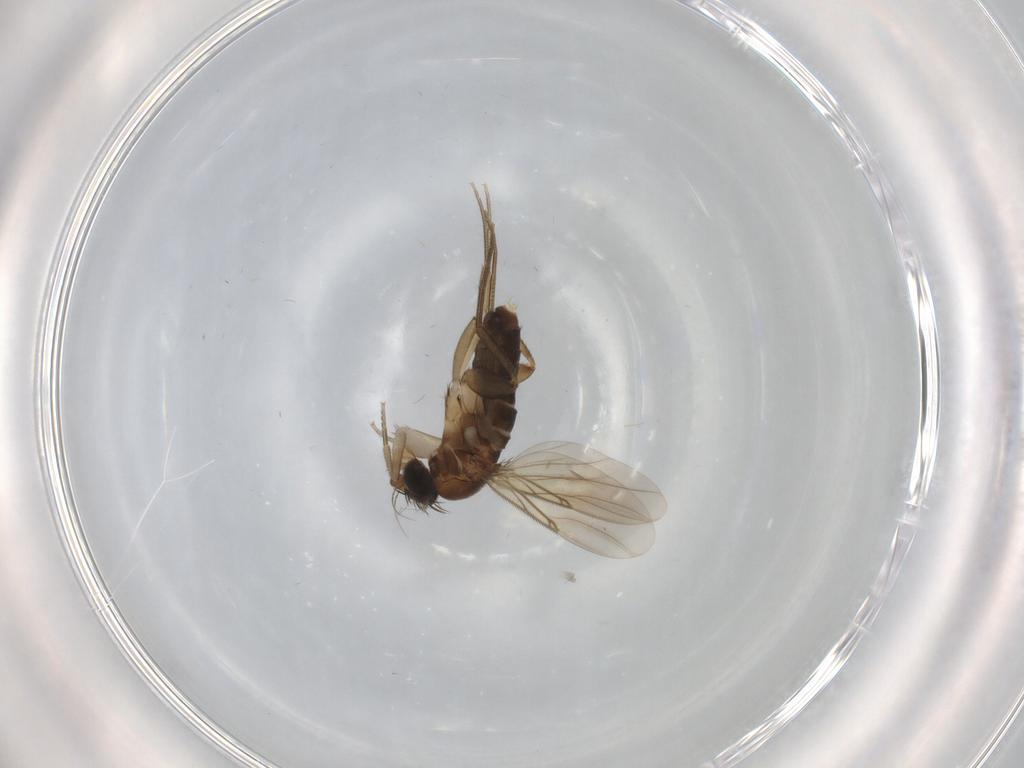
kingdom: Animalia
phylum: Arthropoda
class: Insecta
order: Diptera
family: Phoridae
